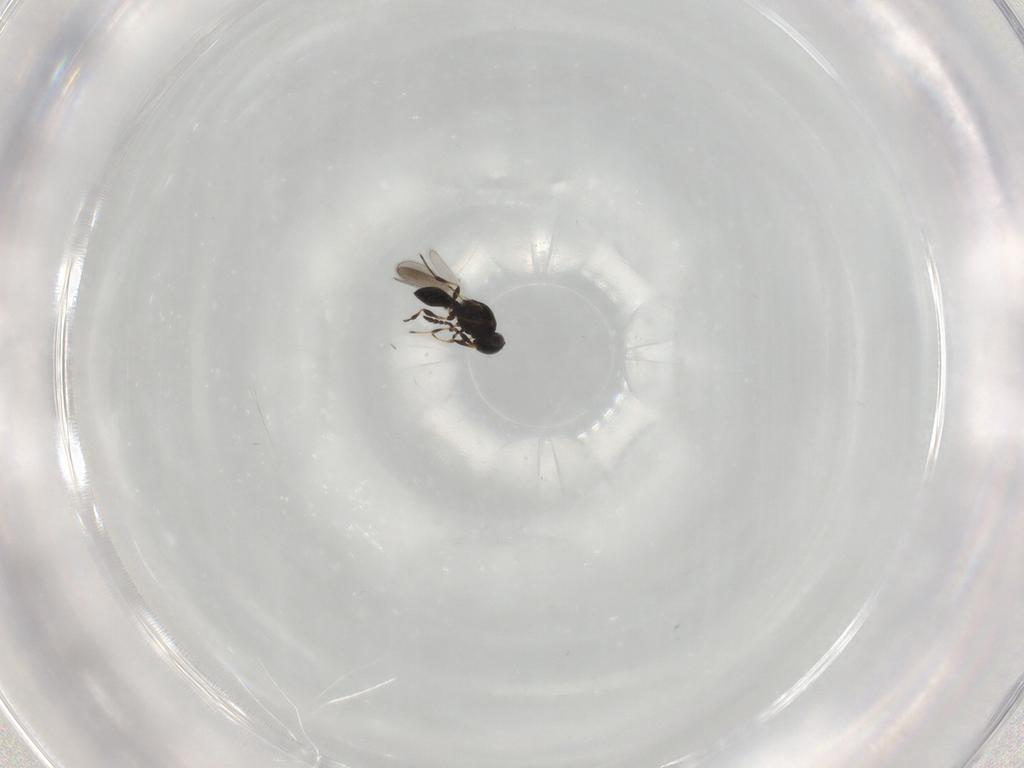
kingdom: Animalia
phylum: Arthropoda
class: Insecta
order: Hymenoptera
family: Platygastridae
